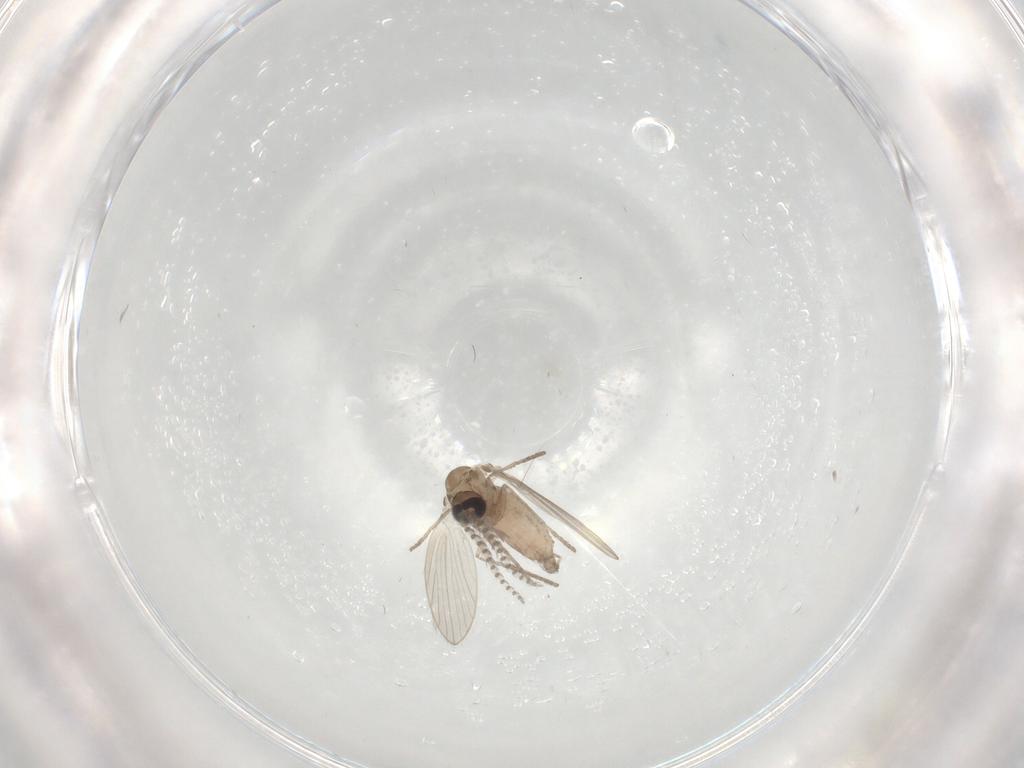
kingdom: Animalia
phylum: Arthropoda
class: Insecta
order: Diptera
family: Psychodidae
